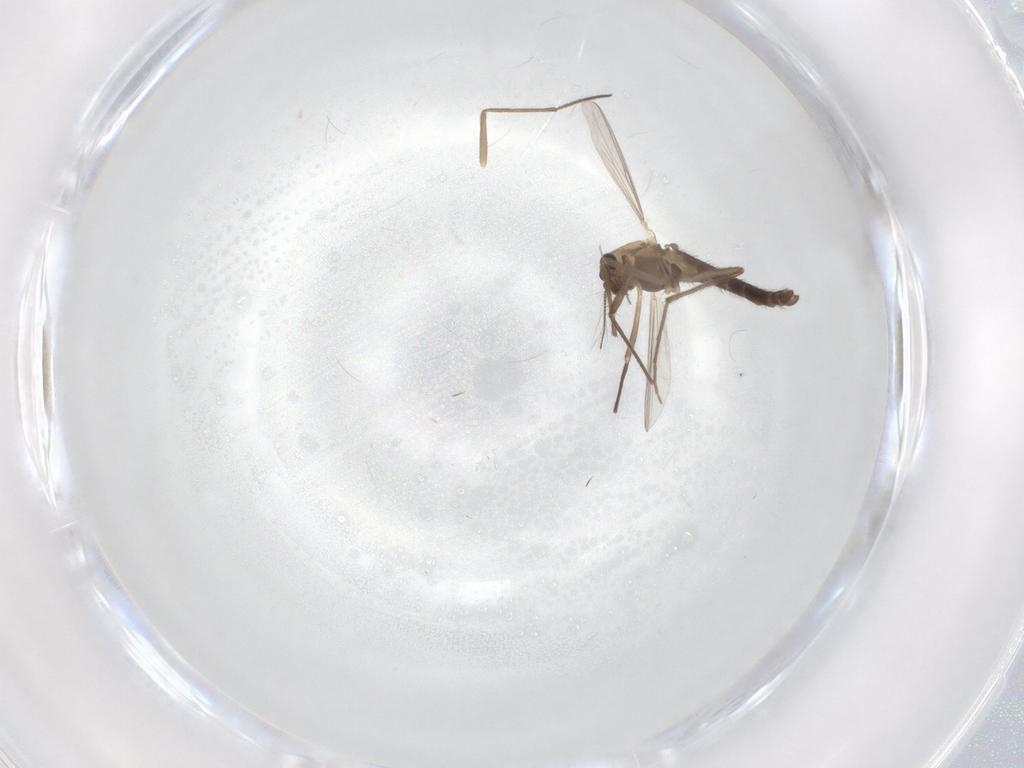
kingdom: Animalia
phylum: Arthropoda
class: Insecta
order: Diptera
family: Chironomidae
